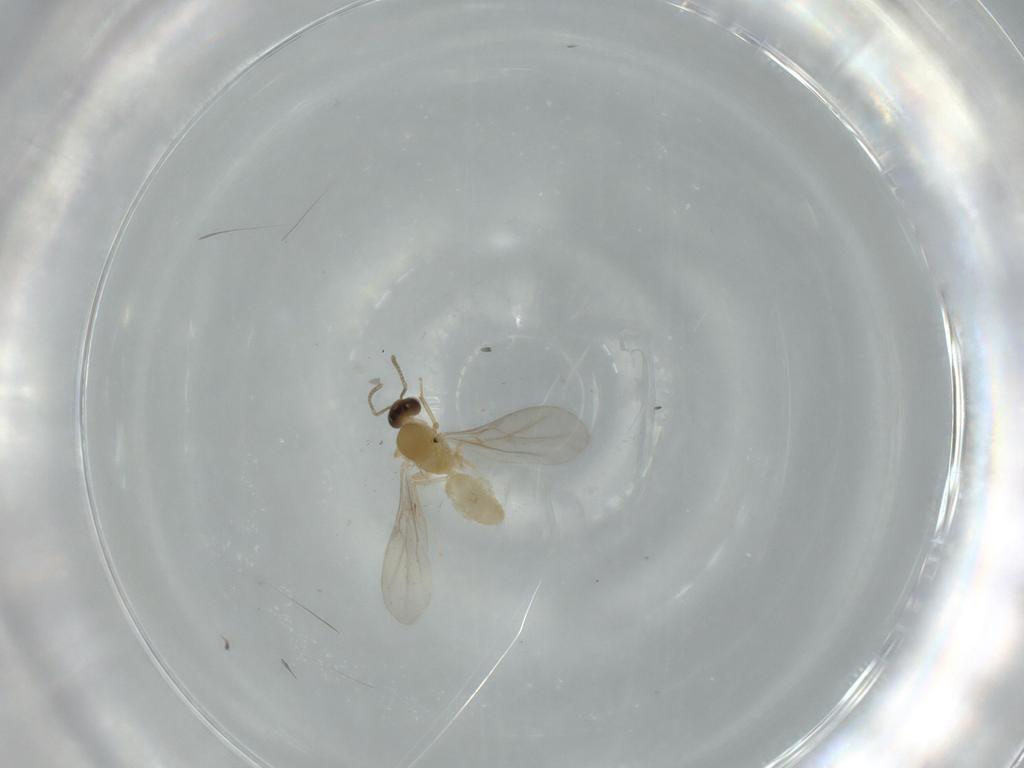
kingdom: Animalia
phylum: Arthropoda
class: Insecta
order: Hymenoptera
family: Formicidae
